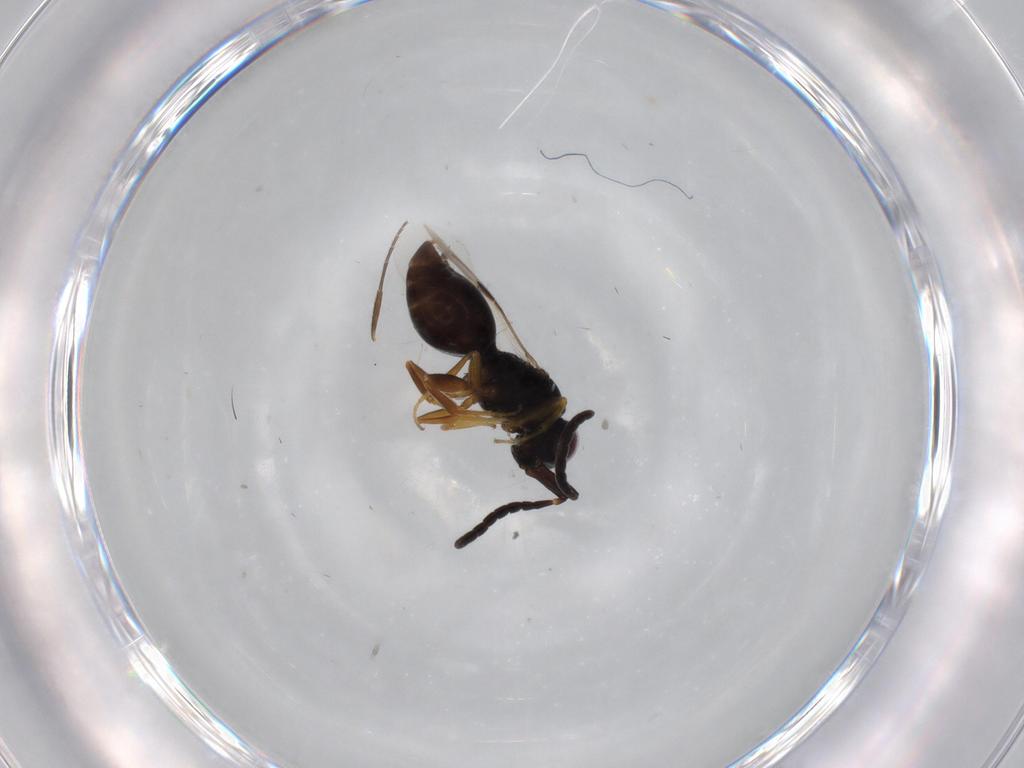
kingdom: Animalia
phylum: Arthropoda
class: Insecta
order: Hymenoptera
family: Megaspilidae
